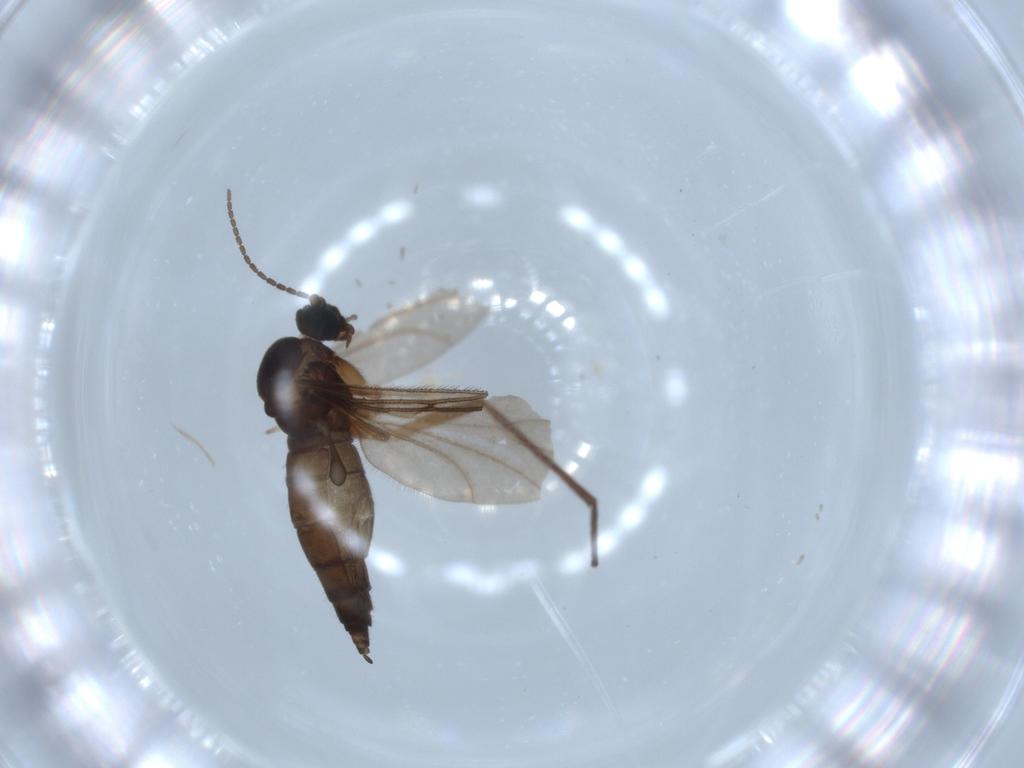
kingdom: Animalia
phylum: Arthropoda
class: Insecta
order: Diptera
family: Sciaridae
